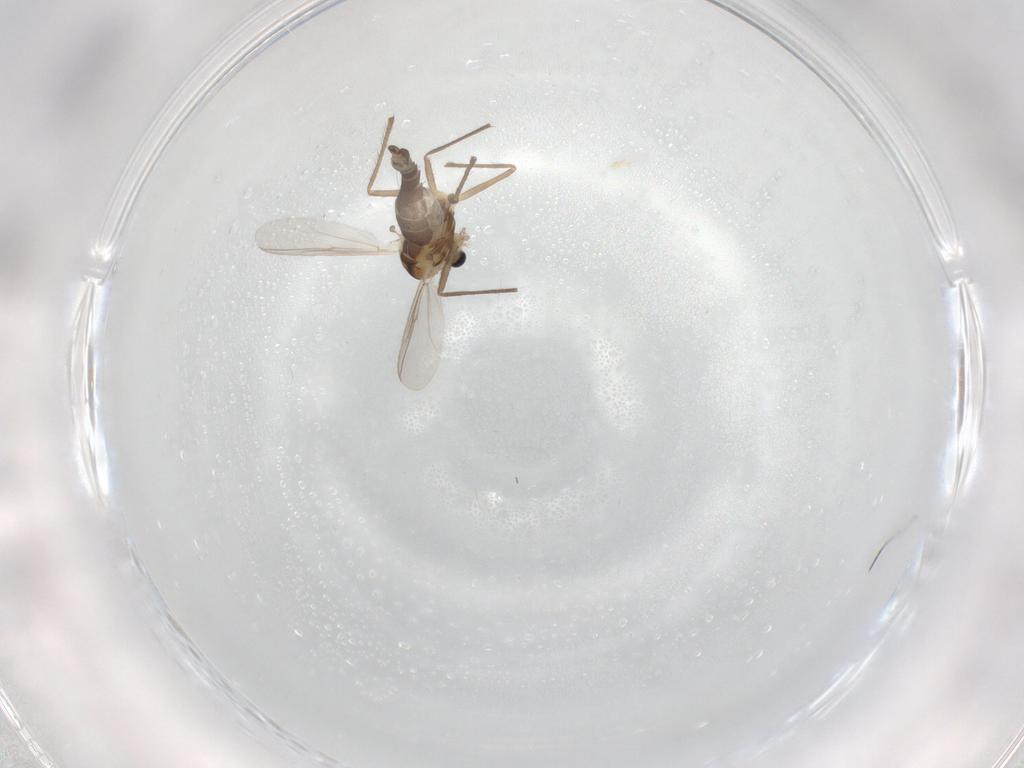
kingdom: Animalia
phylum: Arthropoda
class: Insecta
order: Diptera
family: Chironomidae
